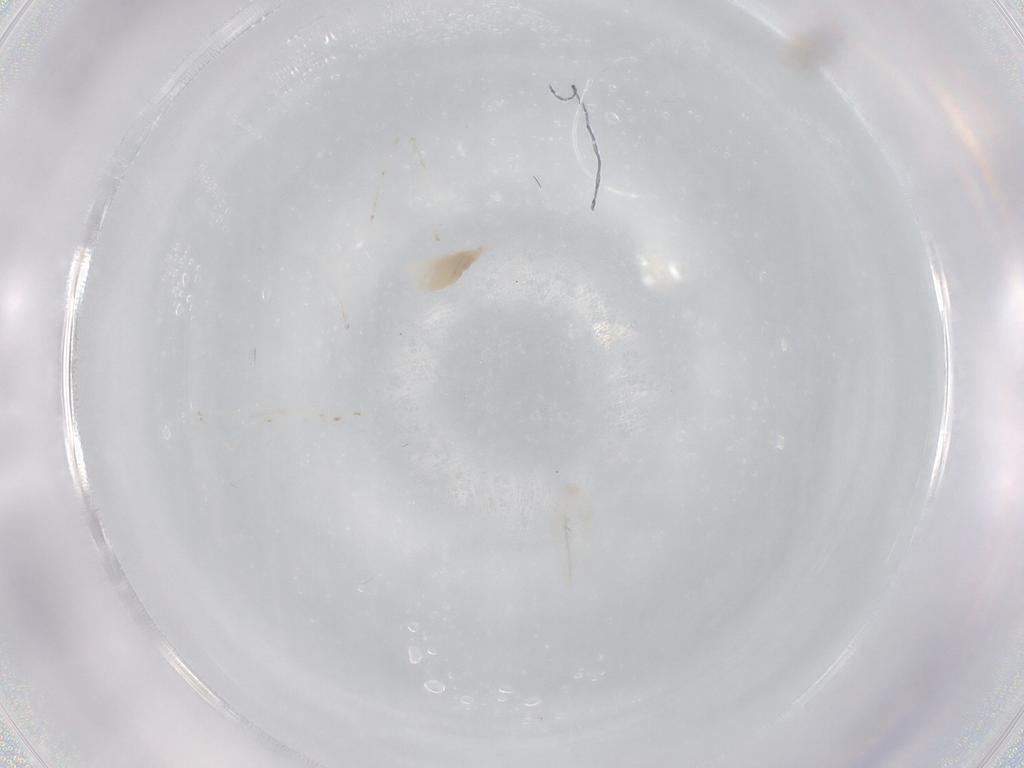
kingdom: Animalia
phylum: Arthropoda
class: Insecta
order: Diptera
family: Cecidomyiidae
